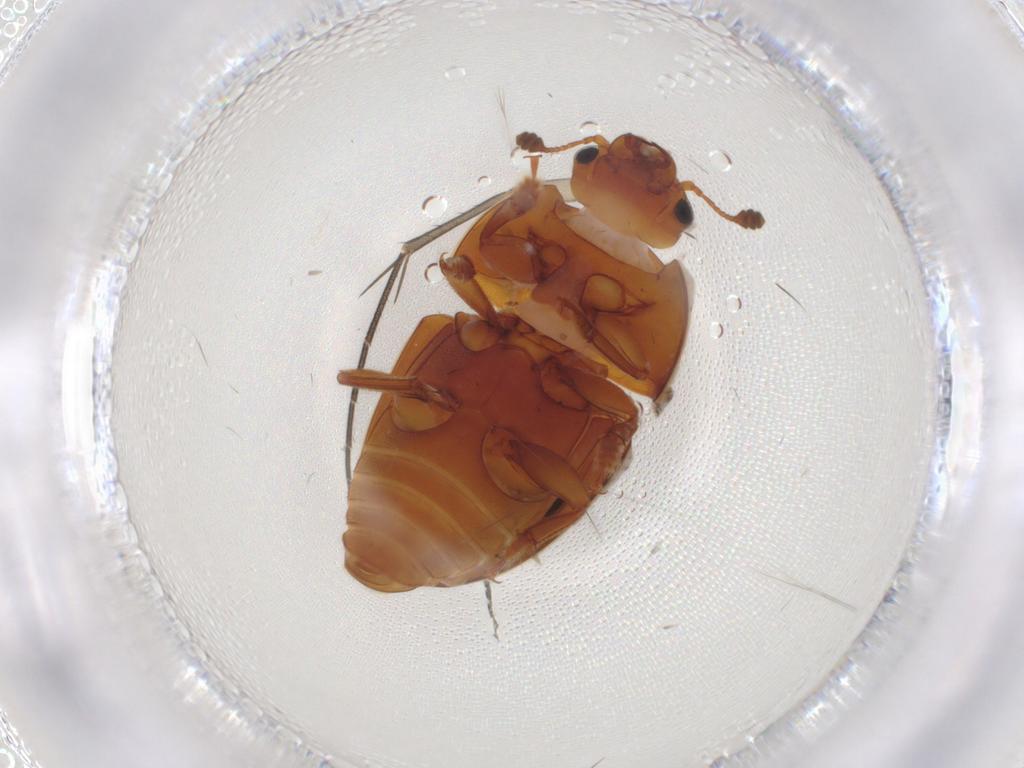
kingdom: Animalia
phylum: Arthropoda
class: Insecta
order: Coleoptera
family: Nitidulidae
